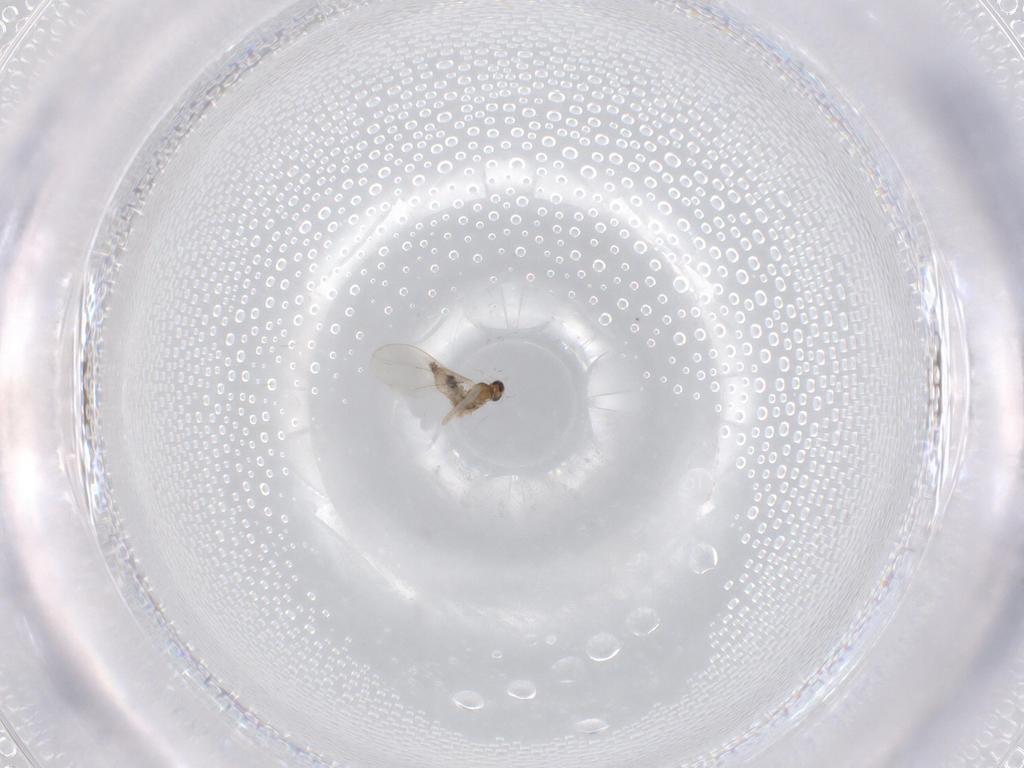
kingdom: Animalia
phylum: Arthropoda
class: Insecta
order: Diptera
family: Cecidomyiidae
